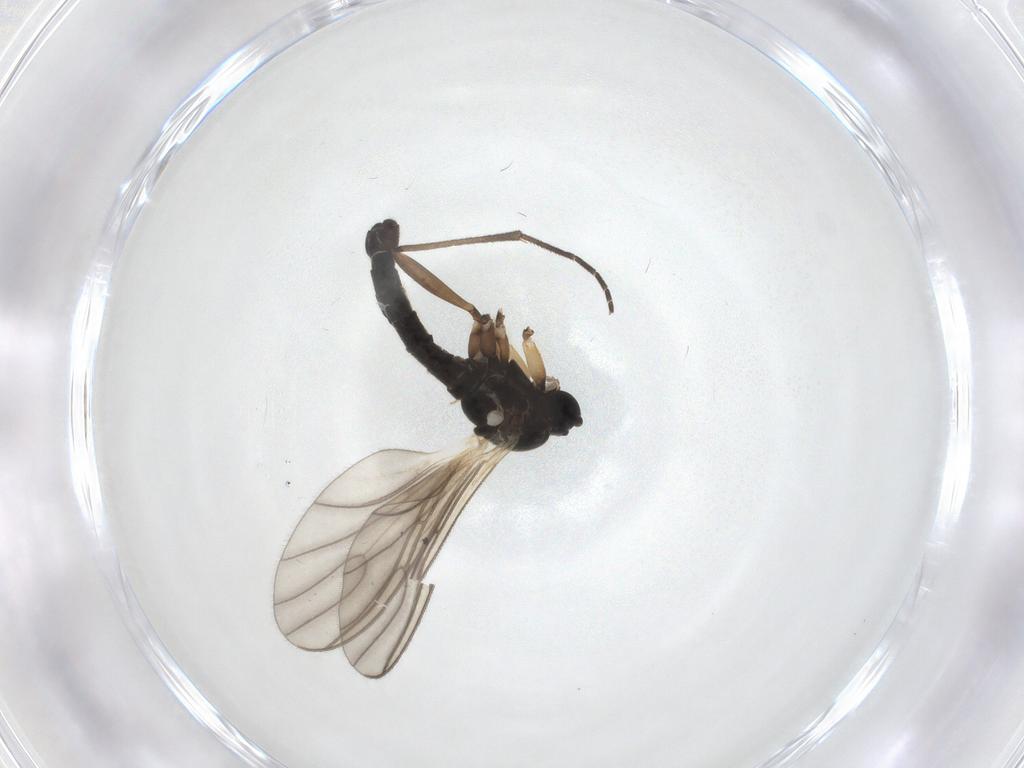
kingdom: Animalia
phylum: Arthropoda
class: Insecta
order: Diptera
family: Sciaridae
